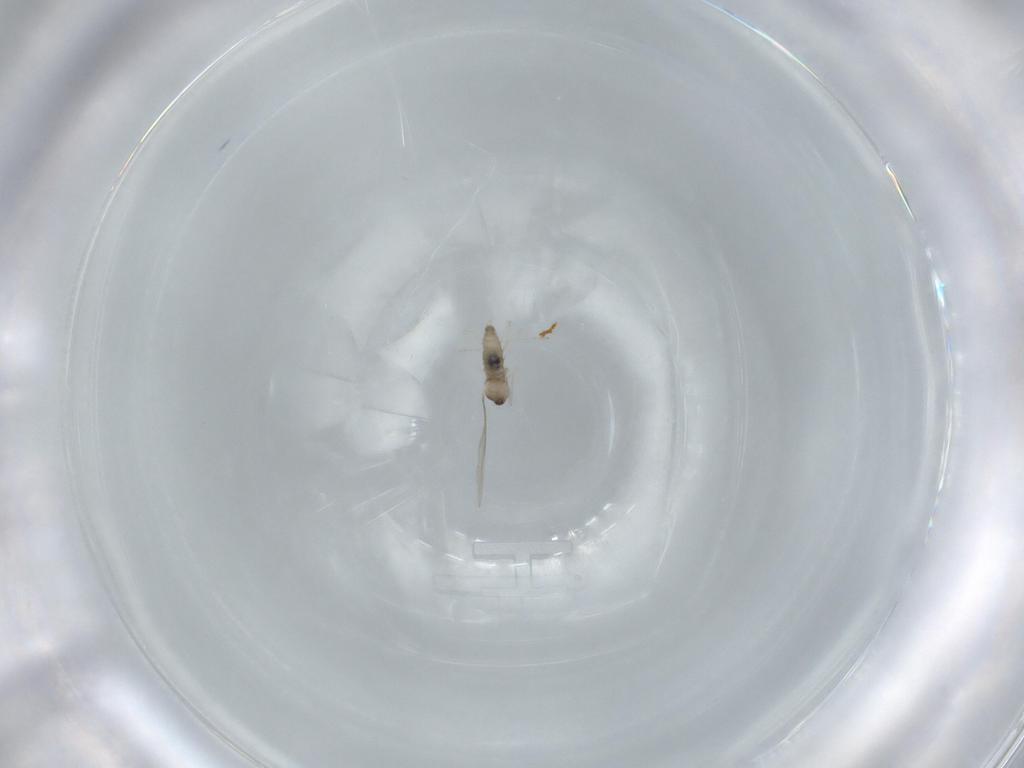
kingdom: Animalia
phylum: Arthropoda
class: Insecta
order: Diptera
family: Cecidomyiidae
